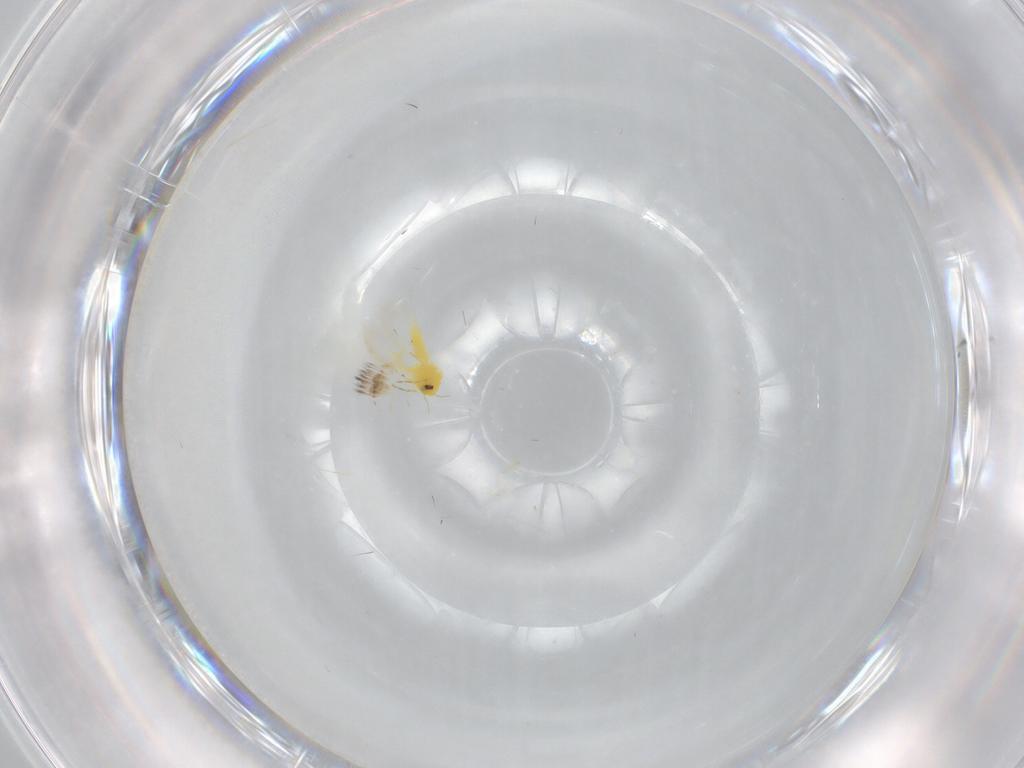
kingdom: Animalia
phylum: Arthropoda
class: Insecta
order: Hemiptera
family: Aleyrodidae
